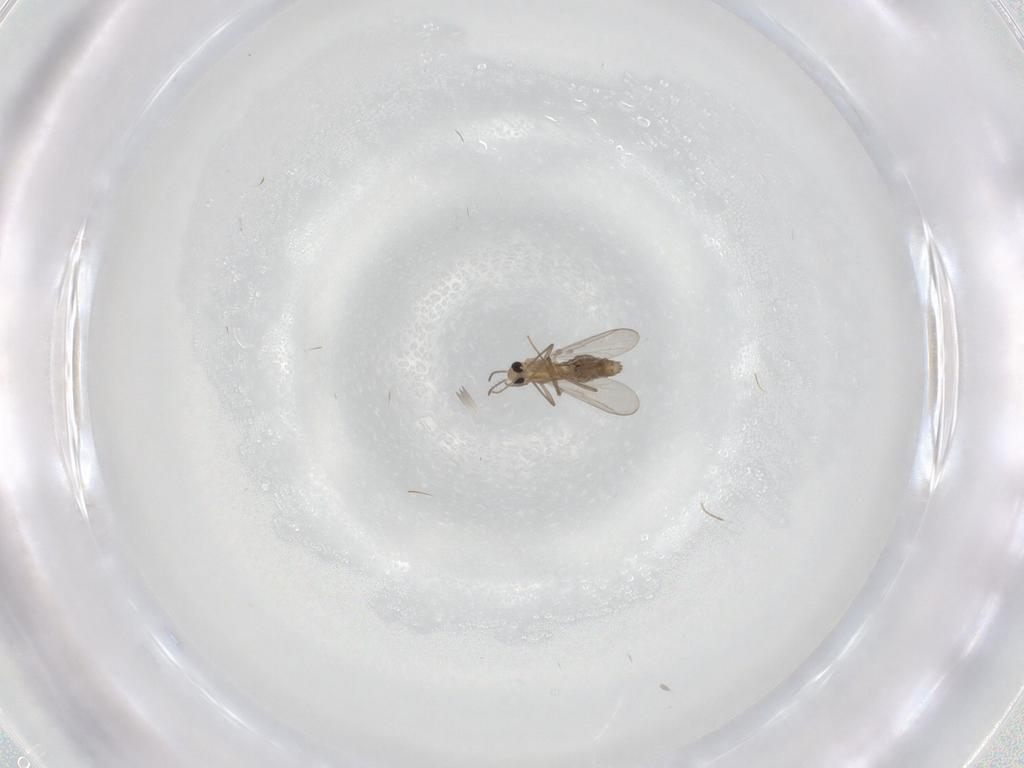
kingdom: Animalia
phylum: Arthropoda
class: Insecta
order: Diptera
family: Chironomidae
